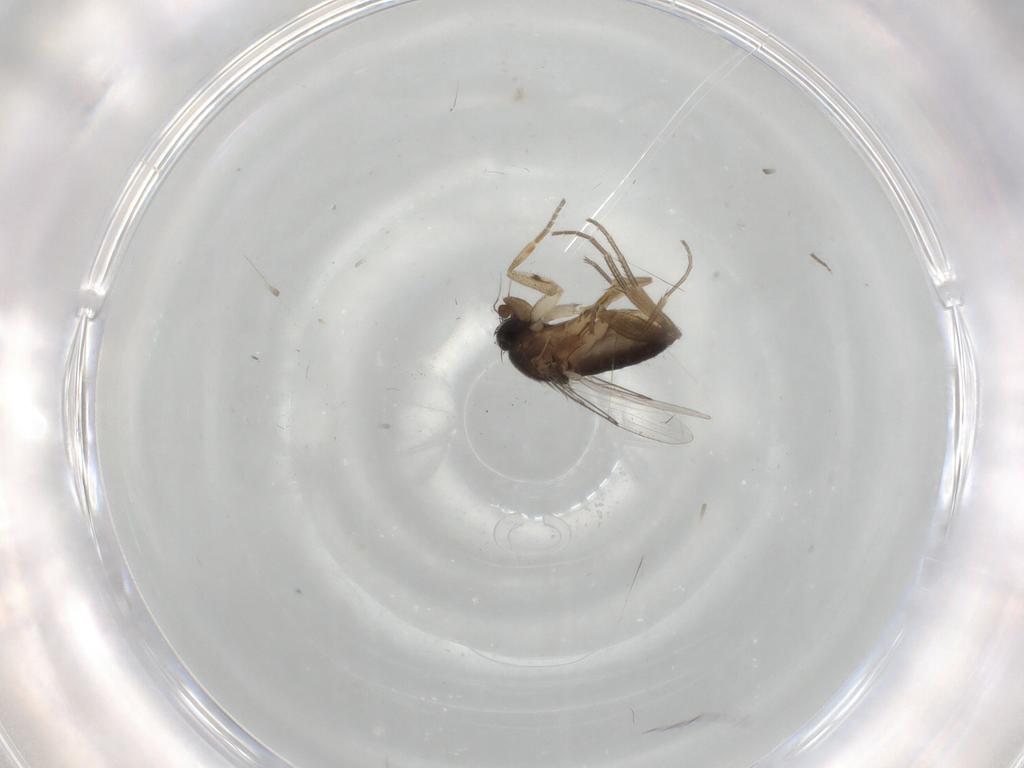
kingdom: Animalia
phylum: Arthropoda
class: Insecta
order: Diptera
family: Phoridae
